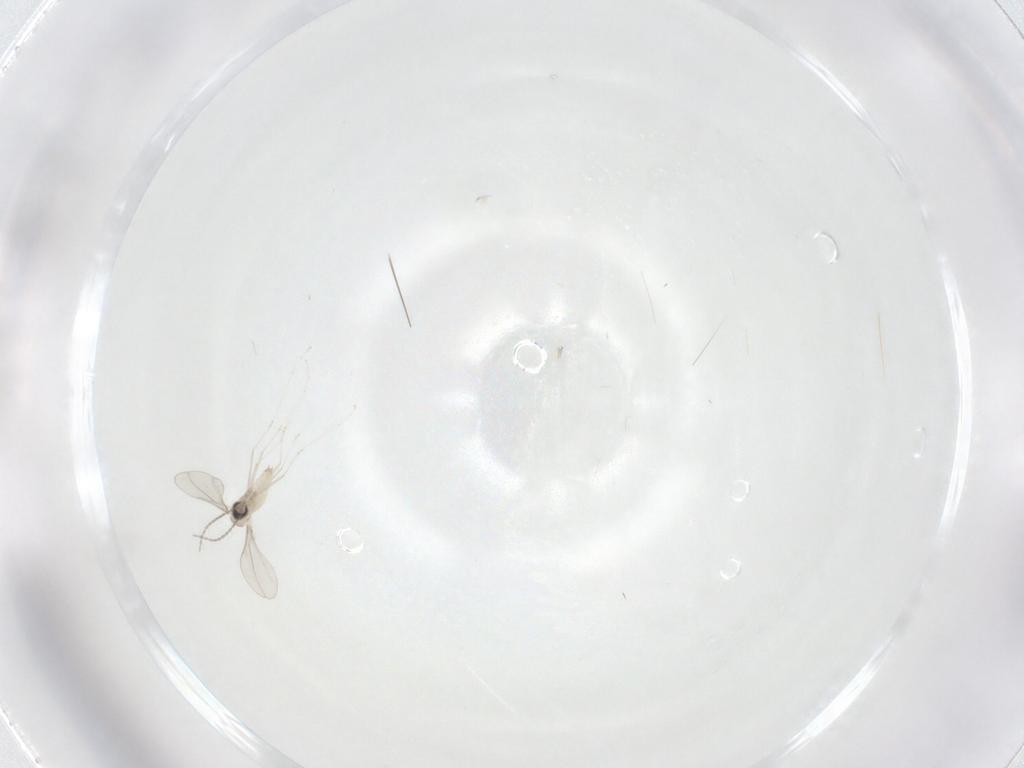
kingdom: Animalia
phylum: Arthropoda
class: Insecta
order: Diptera
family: Cecidomyiidae
